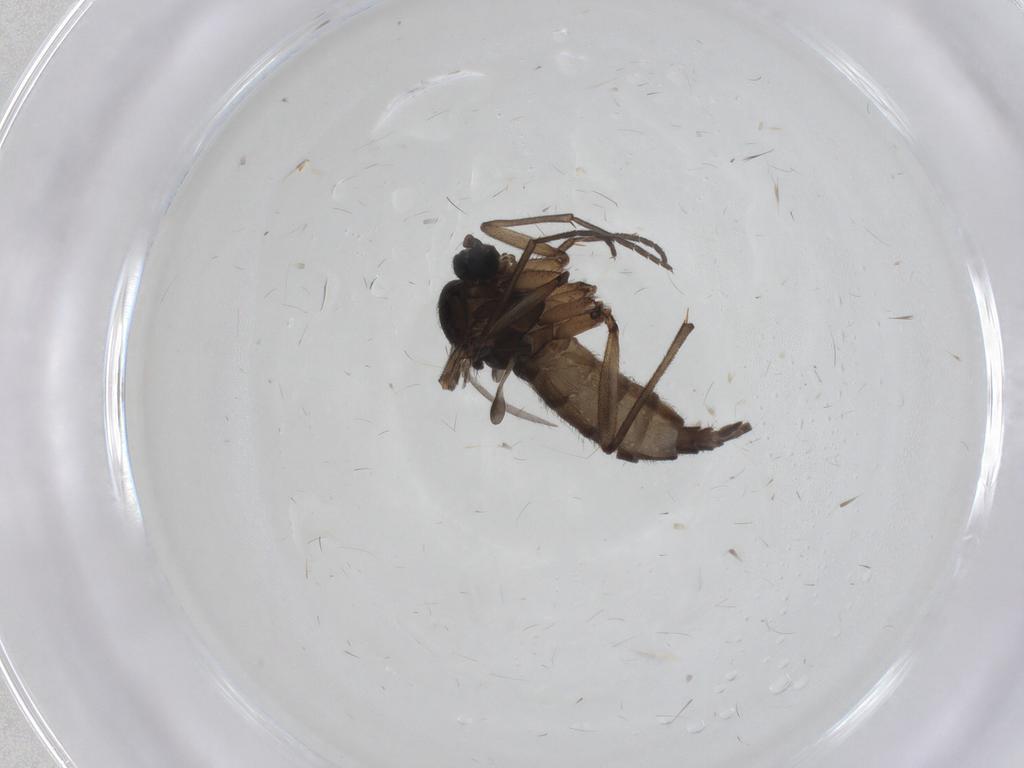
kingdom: Animalia
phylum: Arthropoda
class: Insecta
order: Diptera
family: Sciaridae
